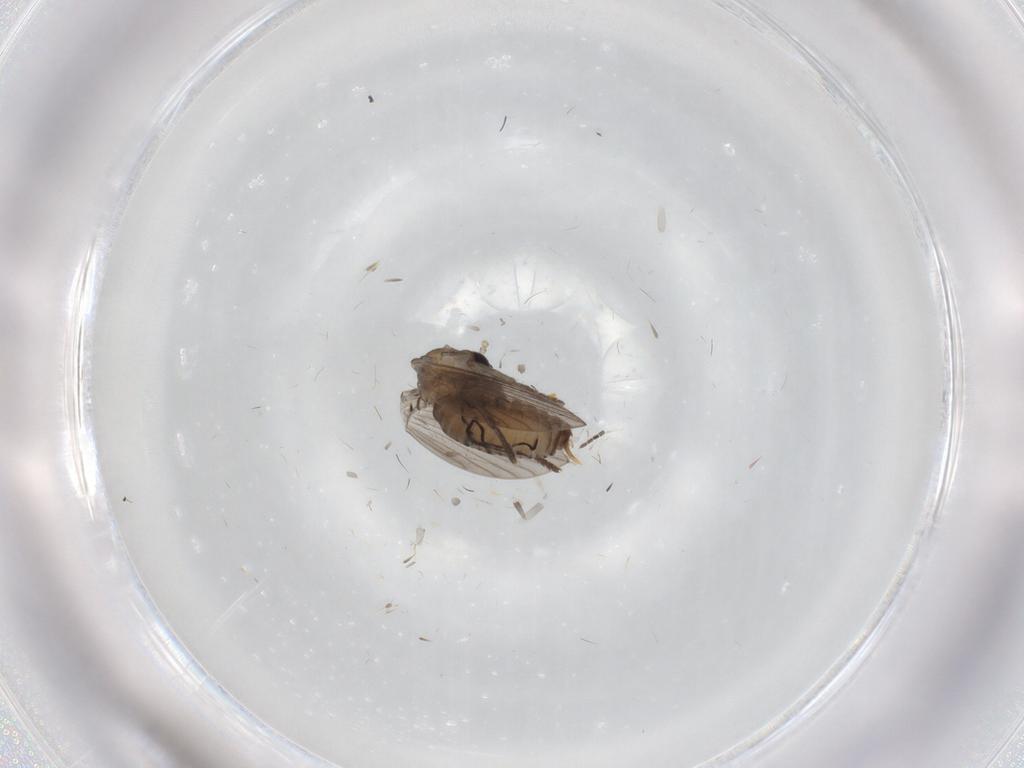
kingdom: Animalia
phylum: Arthropoda
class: Insecta
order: Diptera
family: Psychodidae
